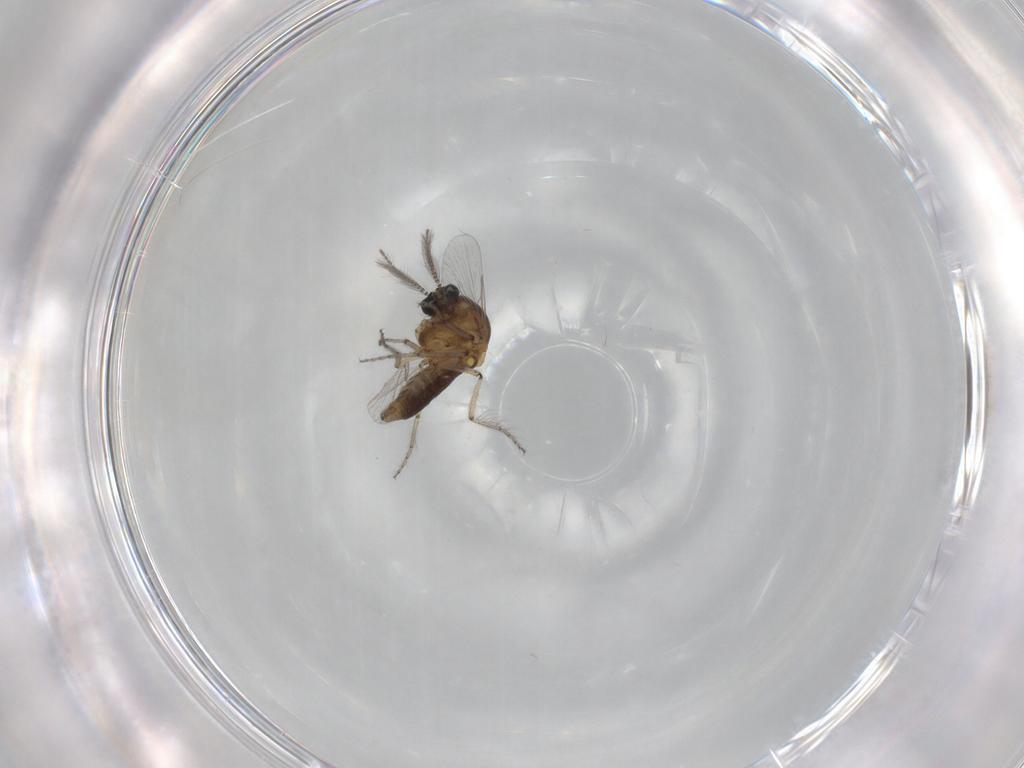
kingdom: Animalia
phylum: Arthropoda
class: Insecta
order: Diptera
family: Ceratopogonidae
